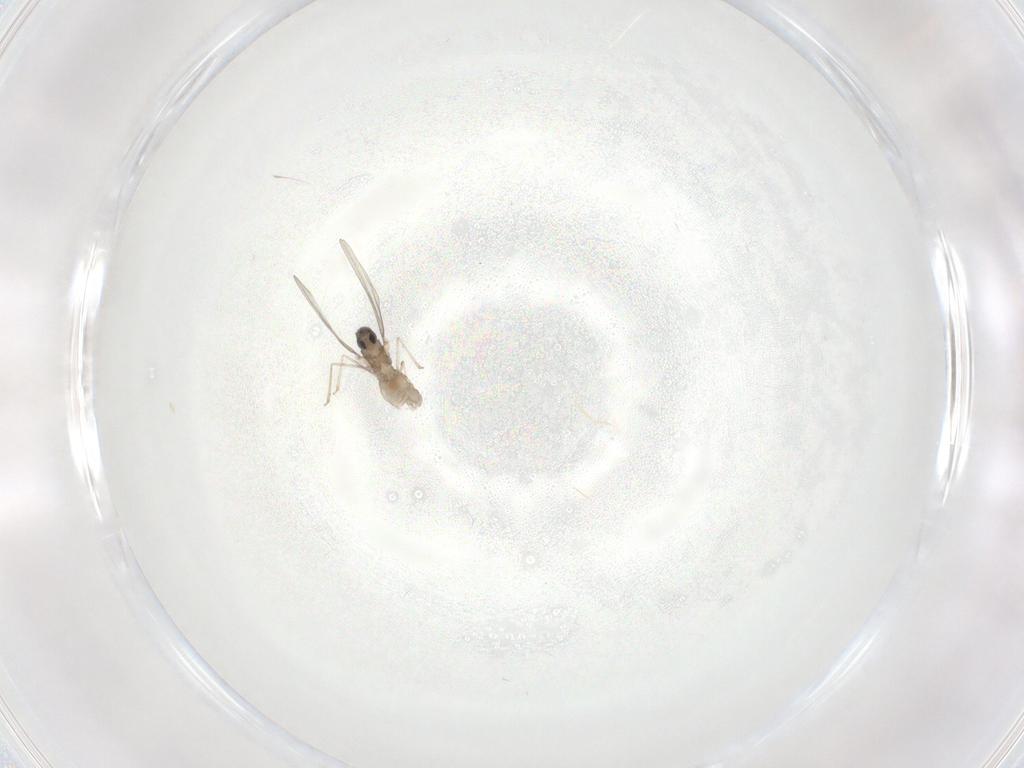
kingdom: Animalia
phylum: Arthropoda
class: Insecta
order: Diptera
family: Cecidomyiidae
